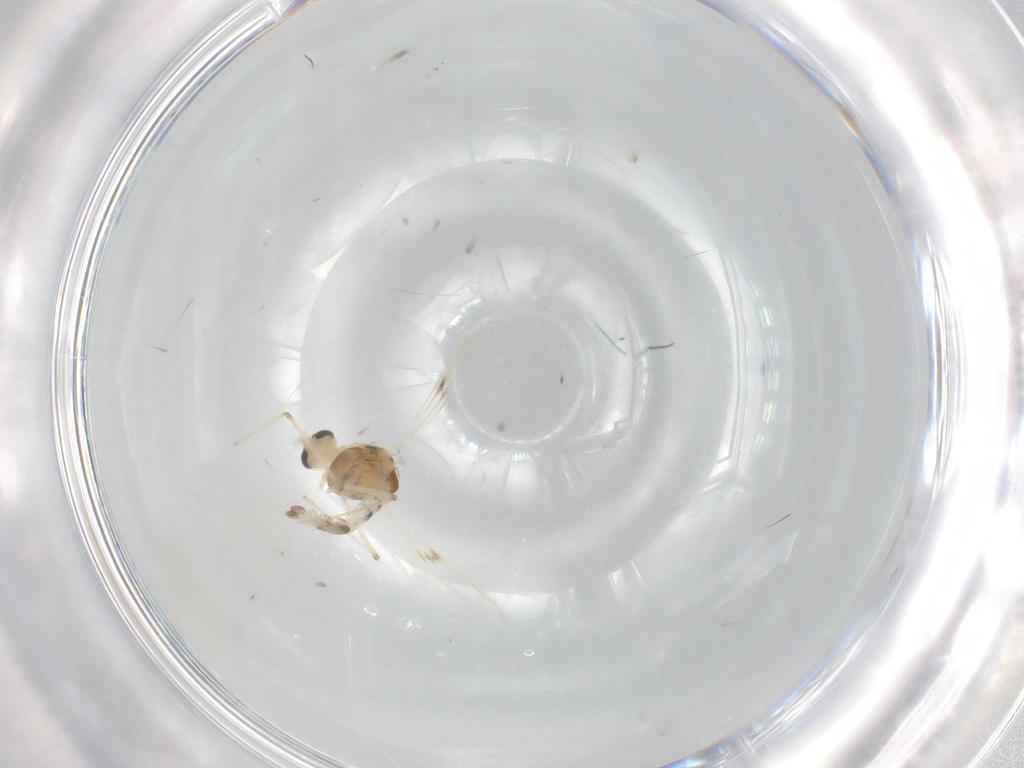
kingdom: Animalia
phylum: Arthropoda
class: Insecta
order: Diptera
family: Chironomidae
